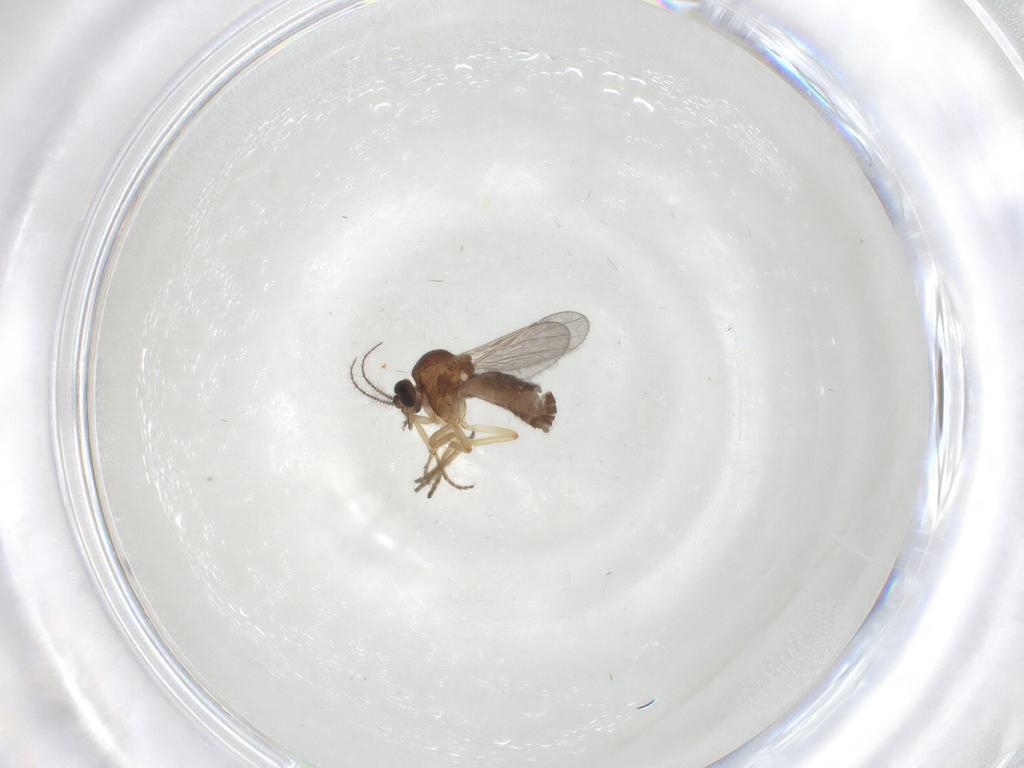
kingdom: Animalia
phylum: Arthropoda
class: Insecta
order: Diptera
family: Ceratopogonidae
